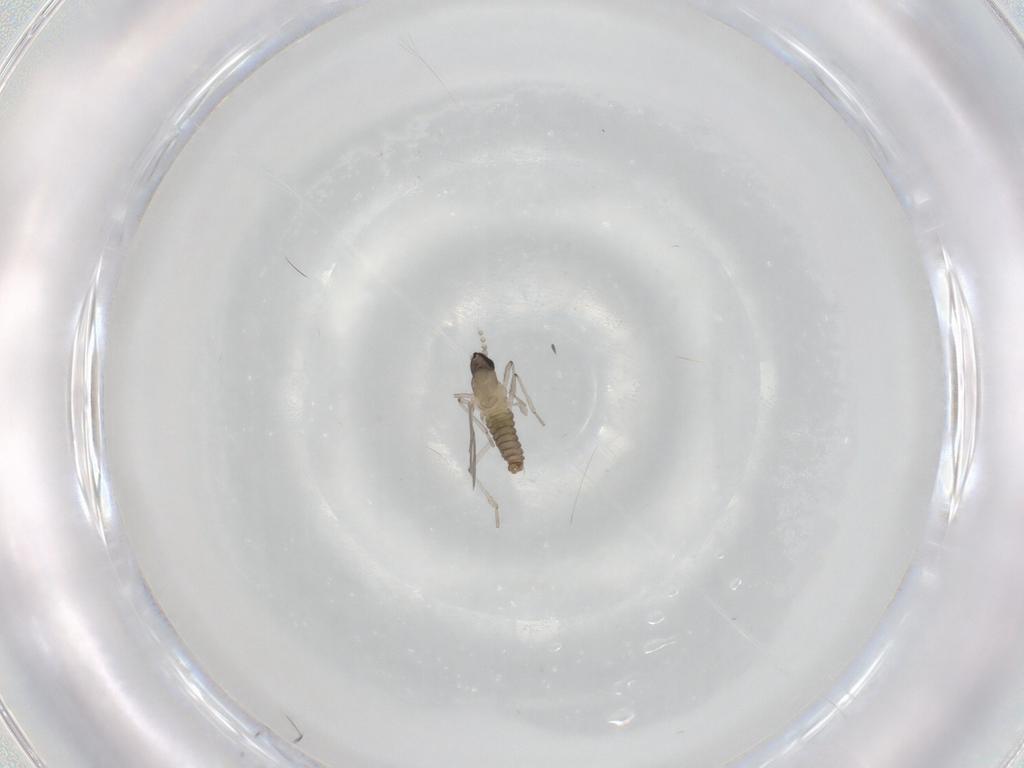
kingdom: Animalia
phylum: Arthropoda
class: Insecta
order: Diptera
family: Cecidomyiidae
